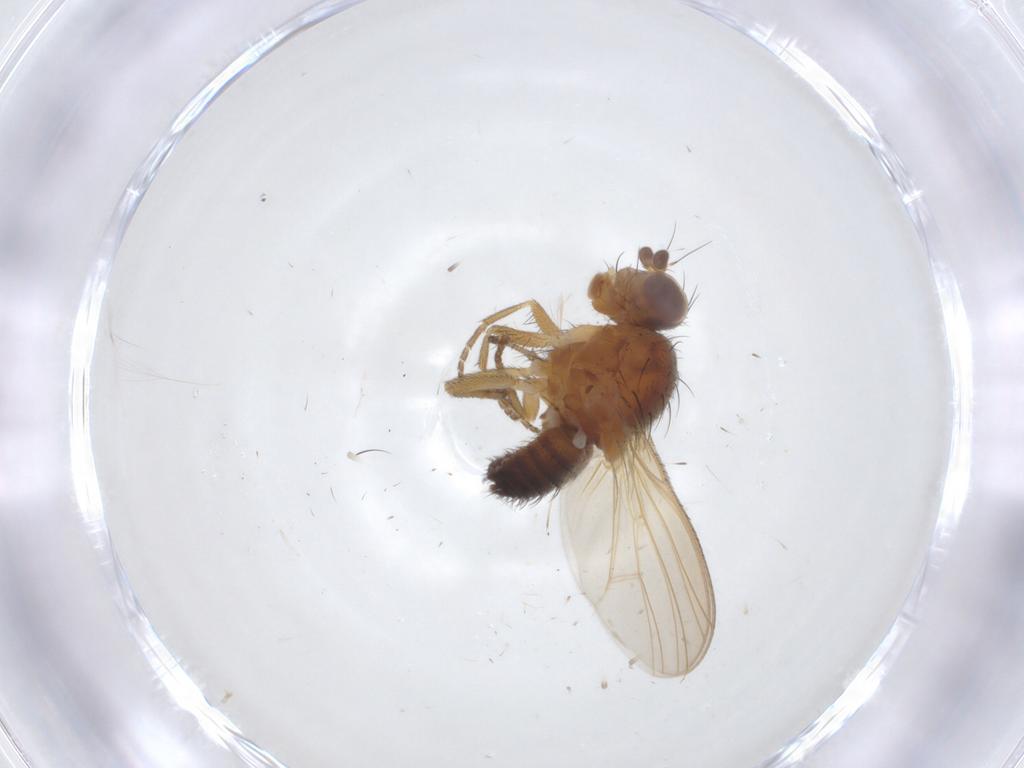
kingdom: Animalia
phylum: Arthropoda
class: Insecta
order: Diptera
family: Heleomyzidae
